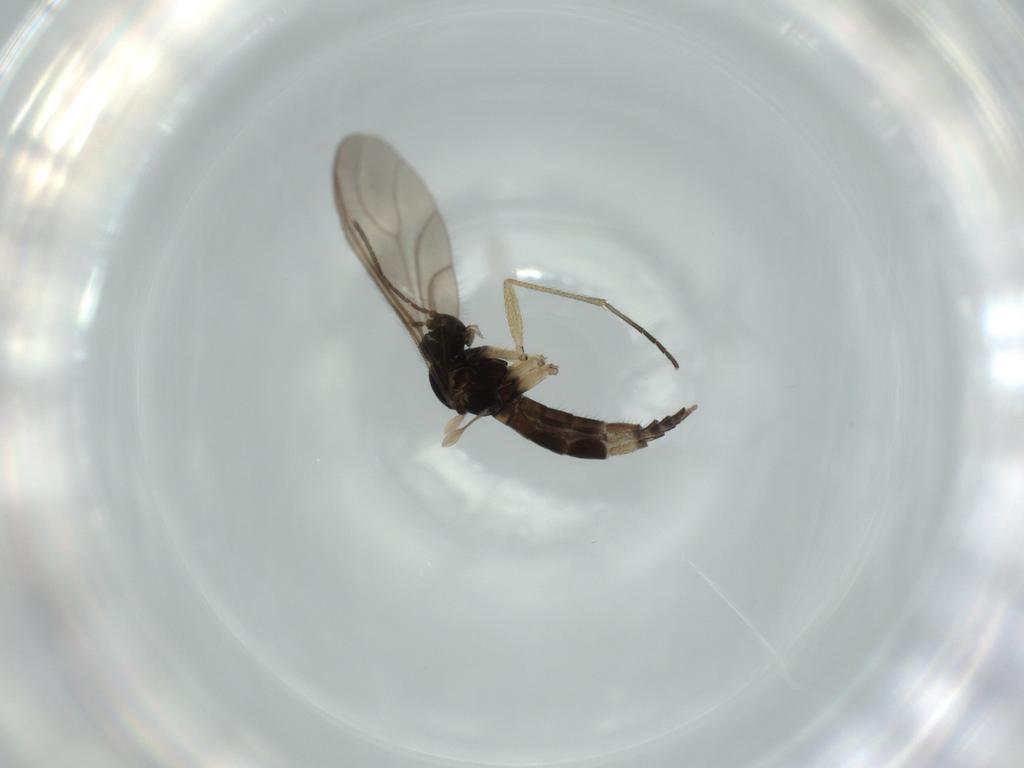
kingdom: Animalia
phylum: Arthropoda
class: Insecta
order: Diptera
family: Sciaridae
